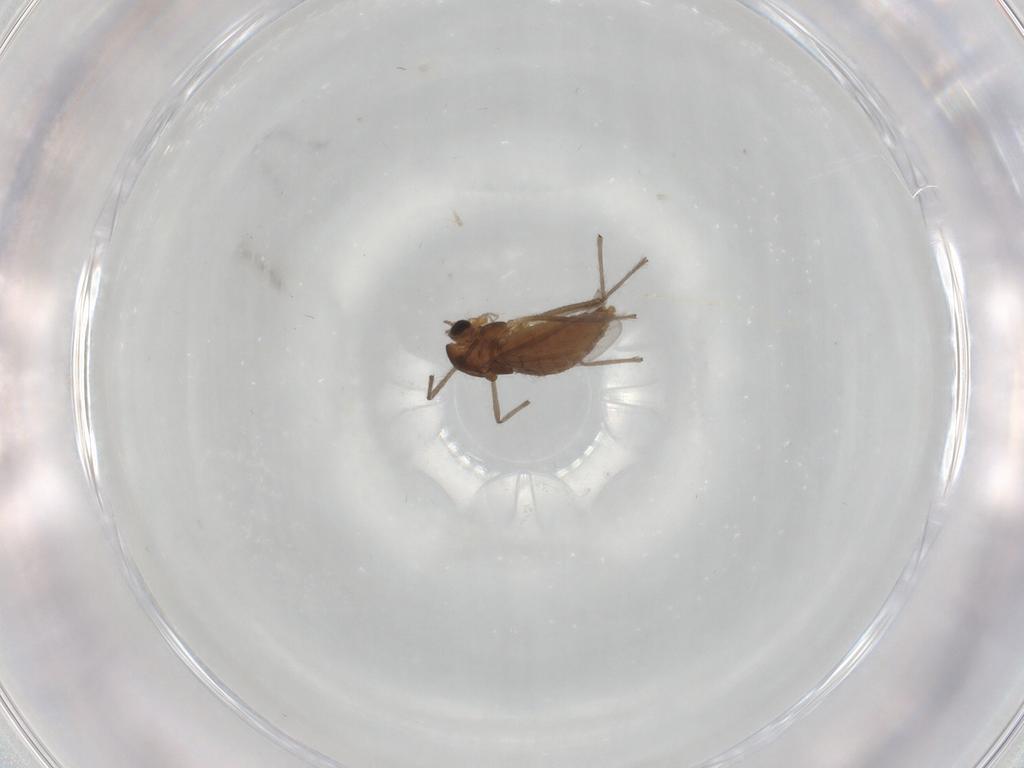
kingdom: Animalia
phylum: Arthropoda
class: Insecta
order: Diptera
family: Chironomidae
